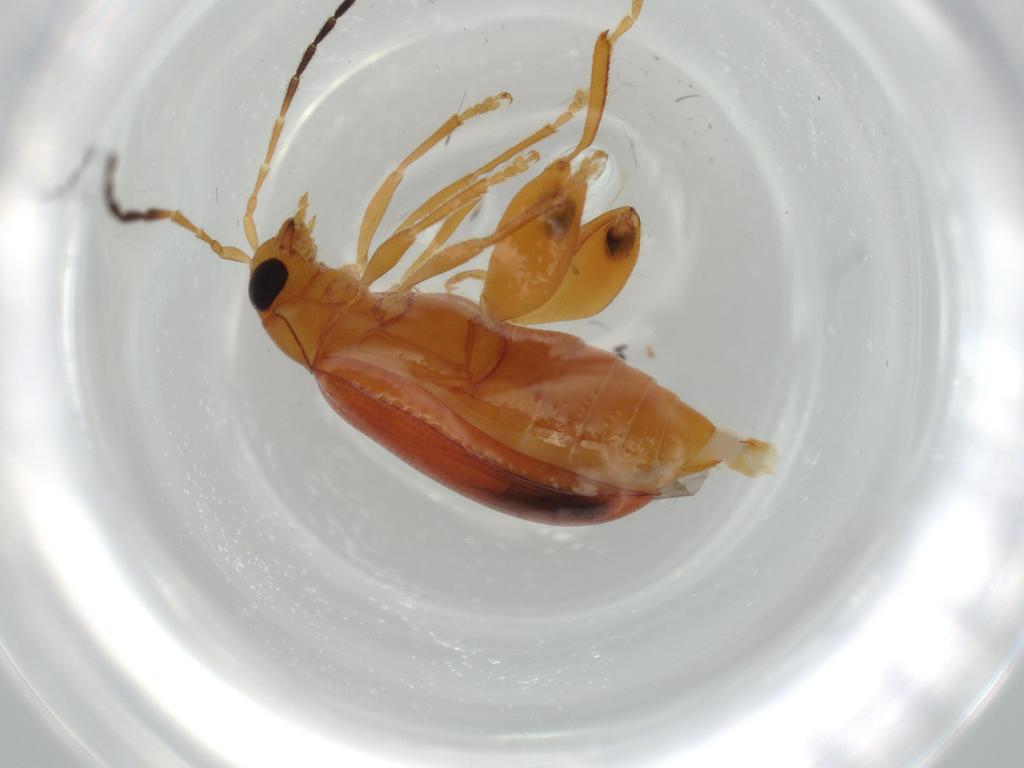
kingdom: Animalia
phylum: Arthropoda
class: Insecta
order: Coleoptera
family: Chrysomelidae
